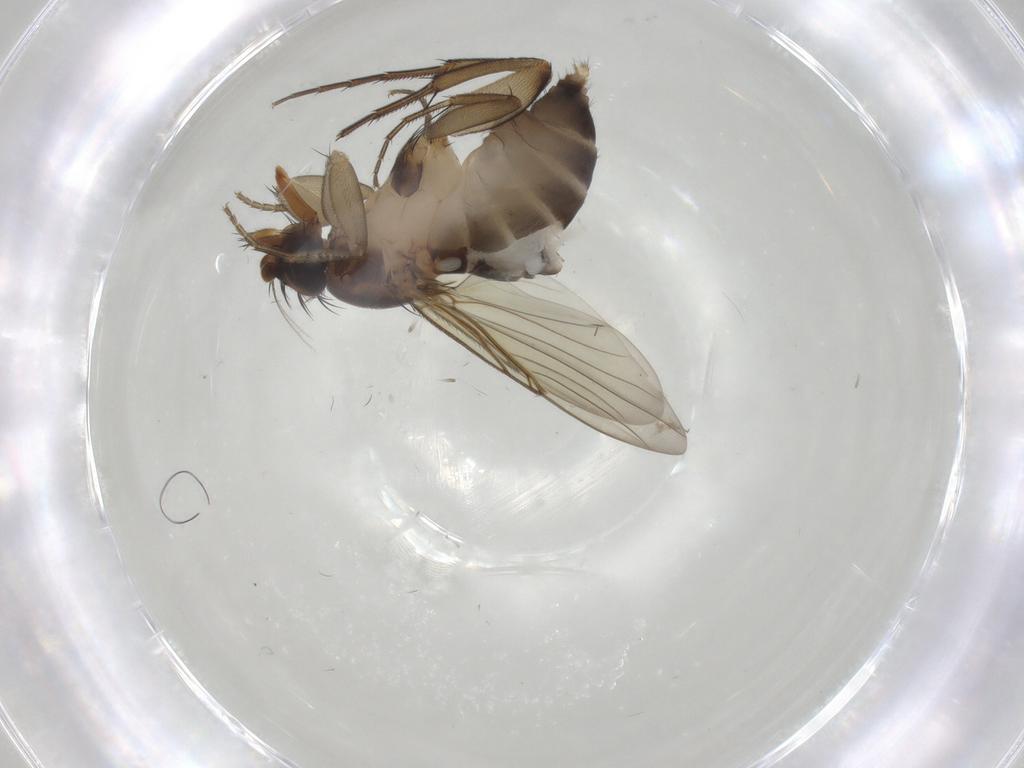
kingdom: Animalia
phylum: Arthropoda
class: Insecta
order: Diptera
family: Phoridae
